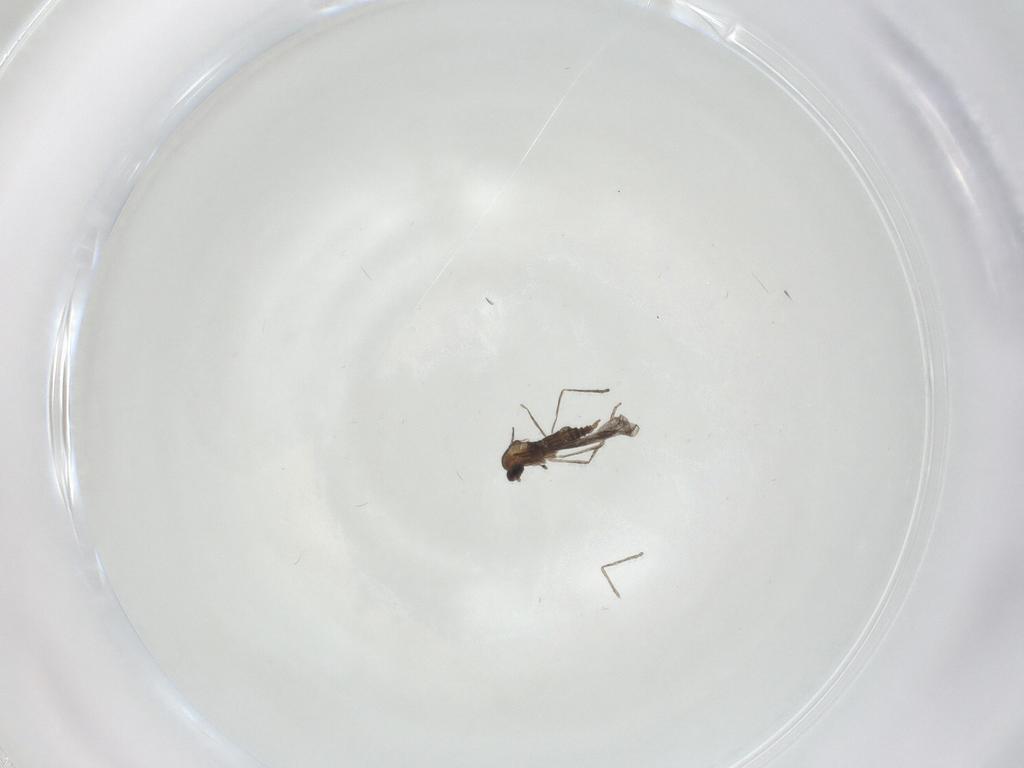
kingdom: Animalia
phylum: Arthropoda
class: Insecta
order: Diptera
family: Cecidomyiidae
